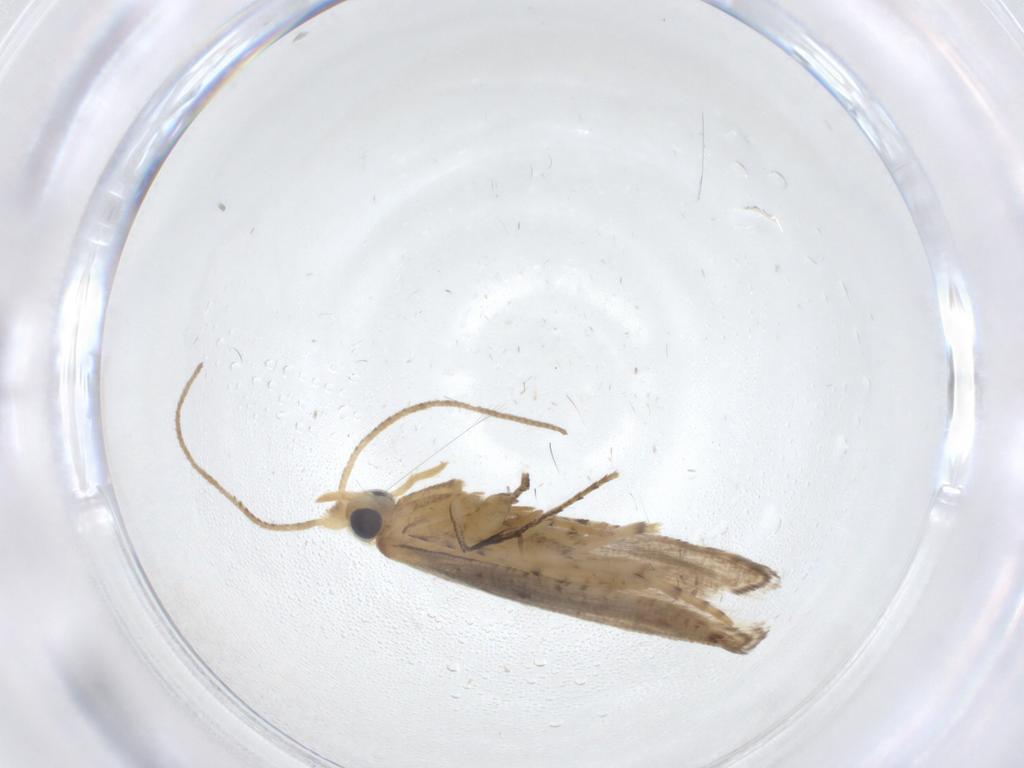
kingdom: Animalia
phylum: Arthropoda
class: Insecta
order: Lepidoptera
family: Argyresthiidae
